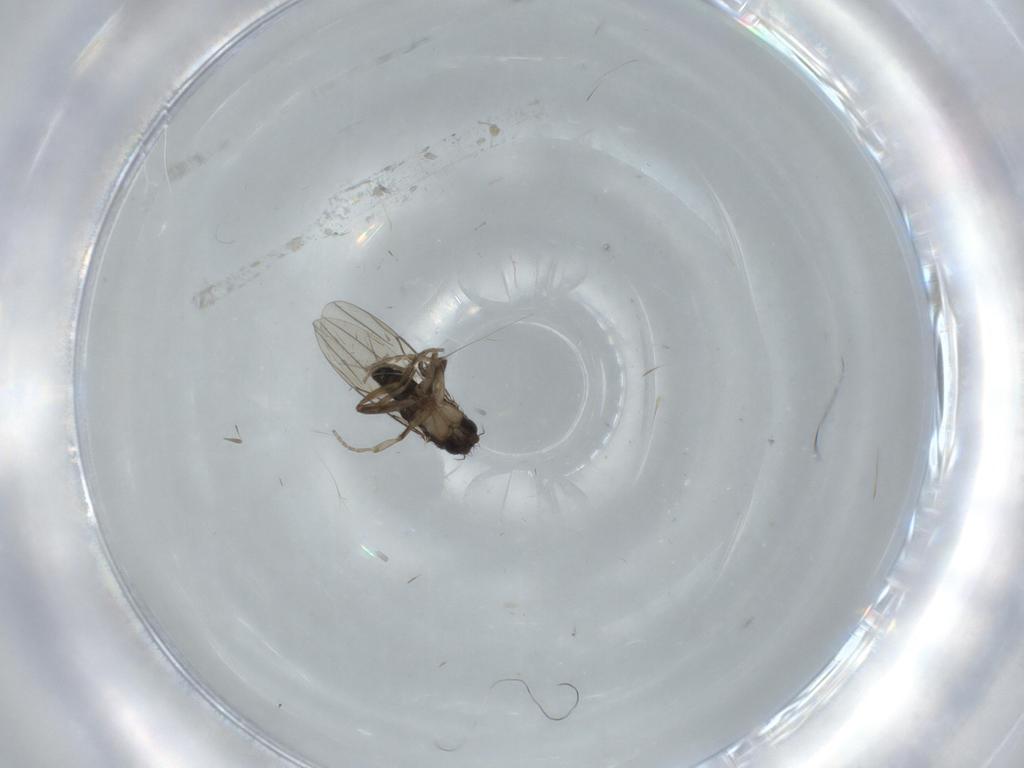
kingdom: Animalia
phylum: Arthropoda
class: Insecta
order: Diptera
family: Phoridae
